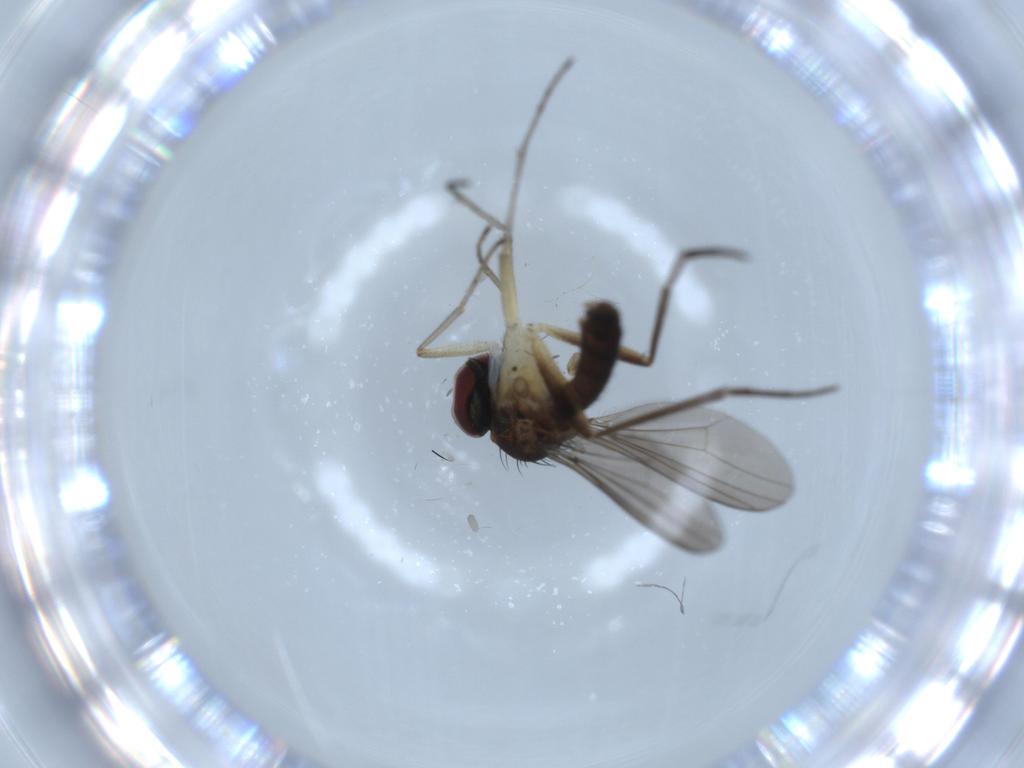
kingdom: Animalia
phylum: Arthropoda
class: Insecta
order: Diptera
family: Dolichopodidae
